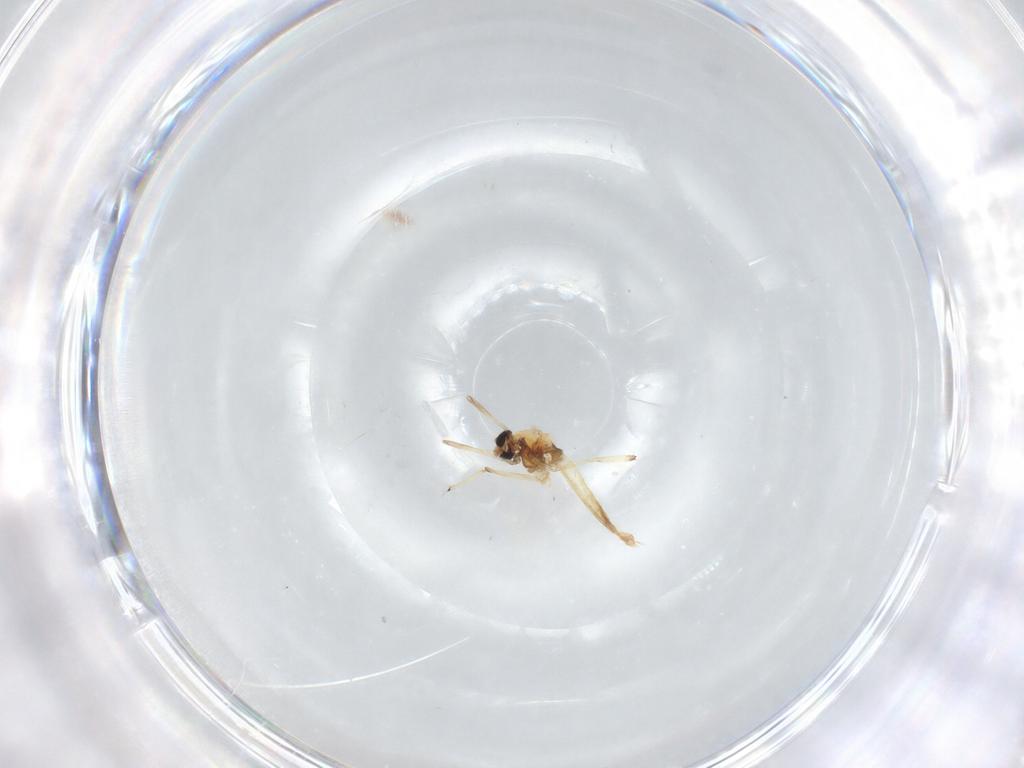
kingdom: Animalia
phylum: Arthropoda
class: Insecta
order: Diptera
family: Chironomidae
